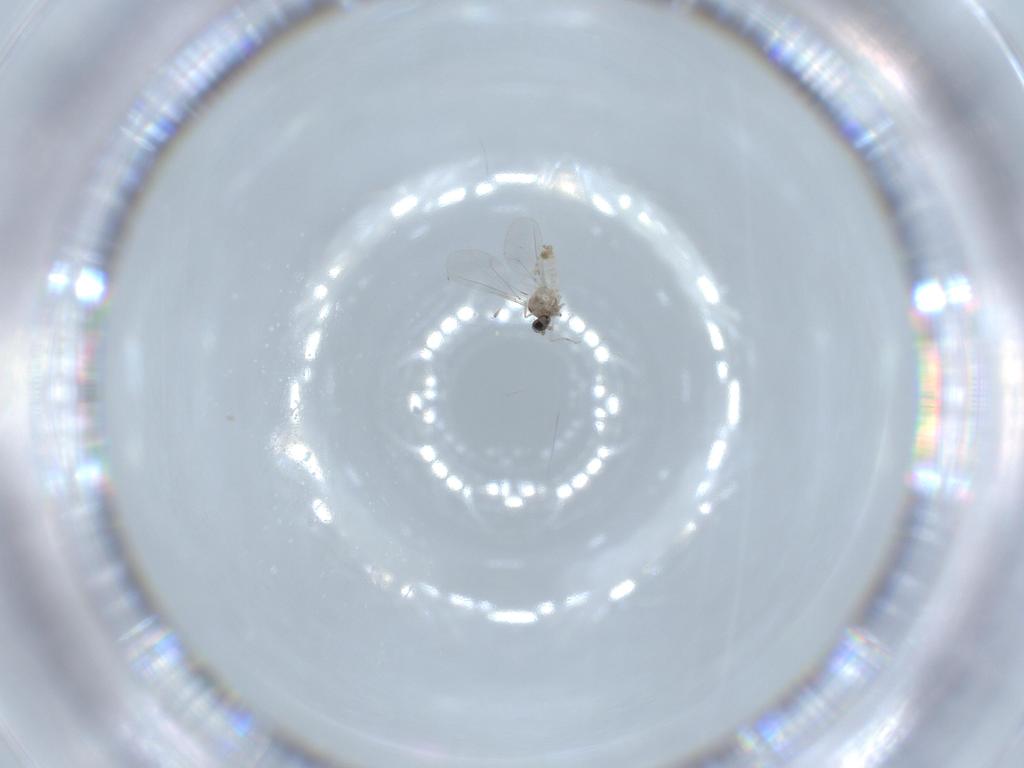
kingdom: Animalia
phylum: Arthropoda
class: Insecta
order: Diptera
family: Cecidomyiidae
